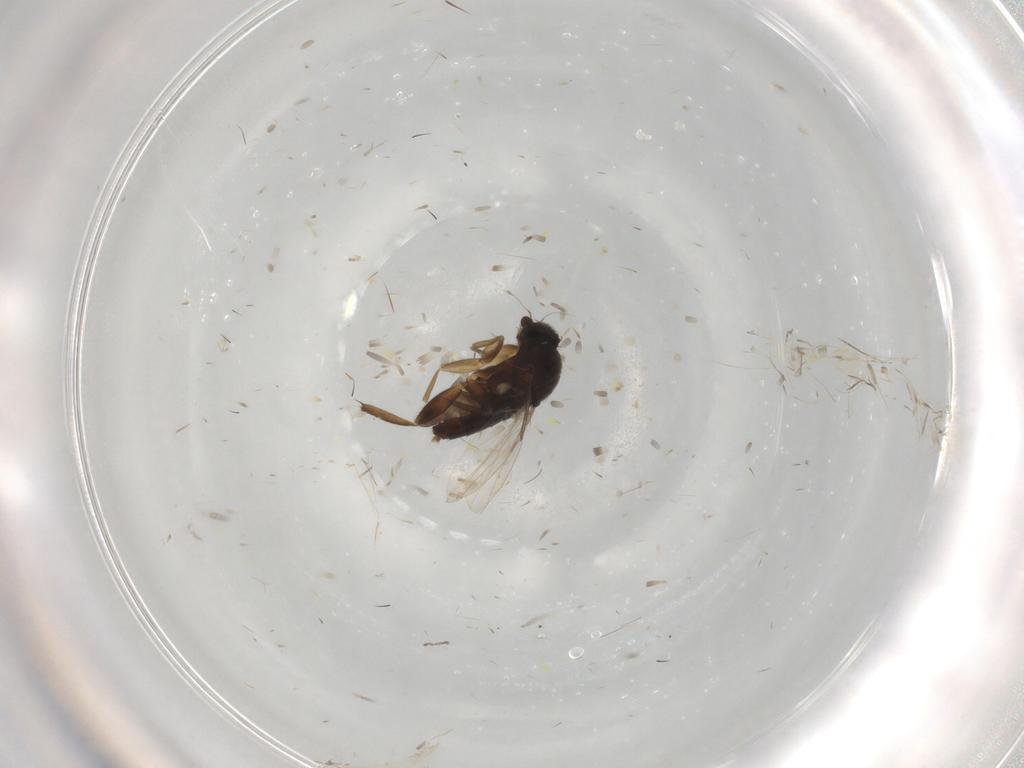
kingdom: Animalia
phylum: Arthropoda
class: Insecta
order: Diptera
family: Phoridae
